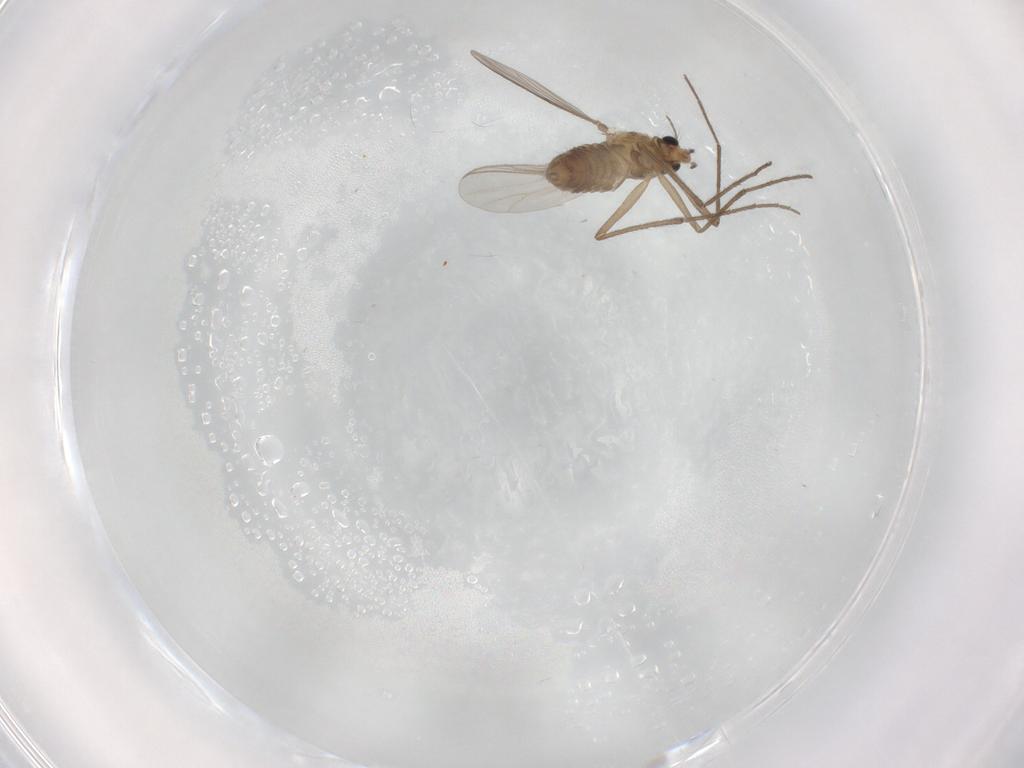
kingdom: Animalia
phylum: Arthropoda
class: Insecta
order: Diptera
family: Chironomidae
